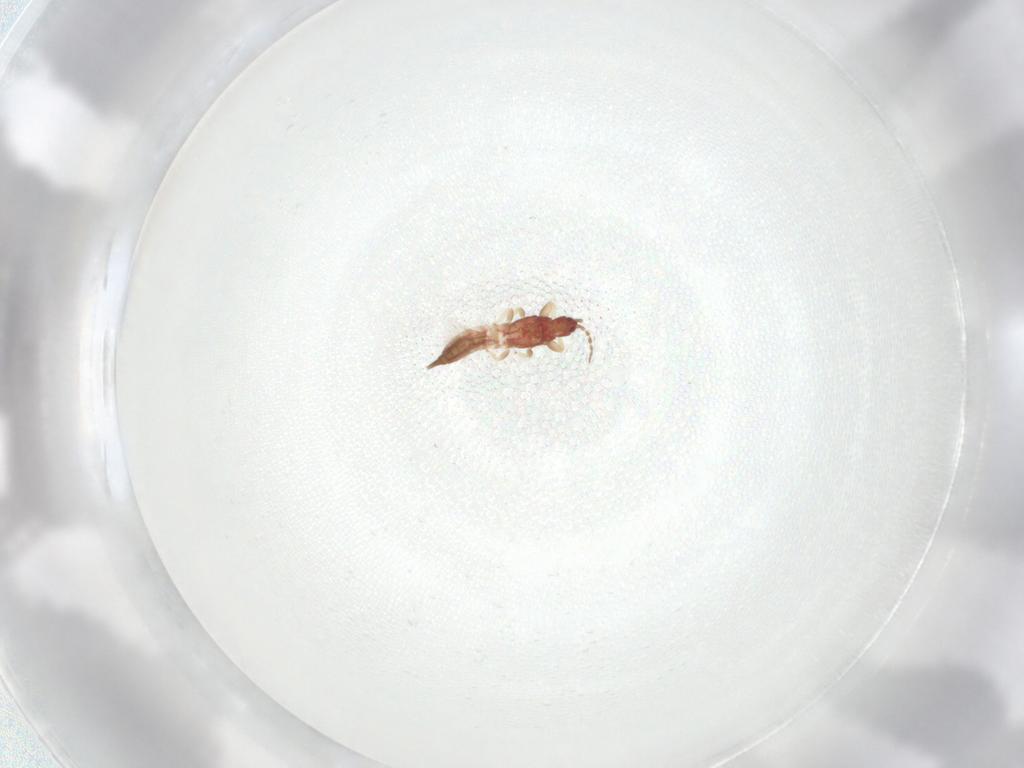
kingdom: Animalia
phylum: Arthropoda
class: Insecta
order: Thysanoptera
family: Phlaeothripidae
